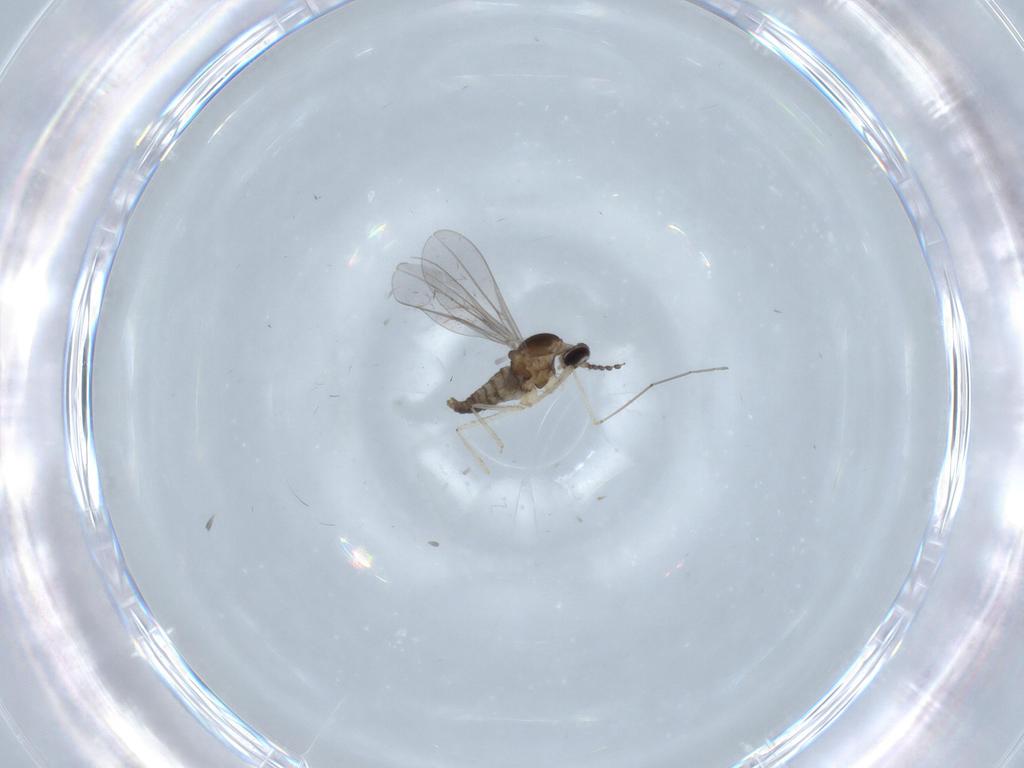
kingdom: Animalia
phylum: Arthropoda
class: Insecta
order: Diptera
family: Cecidomyiidae
